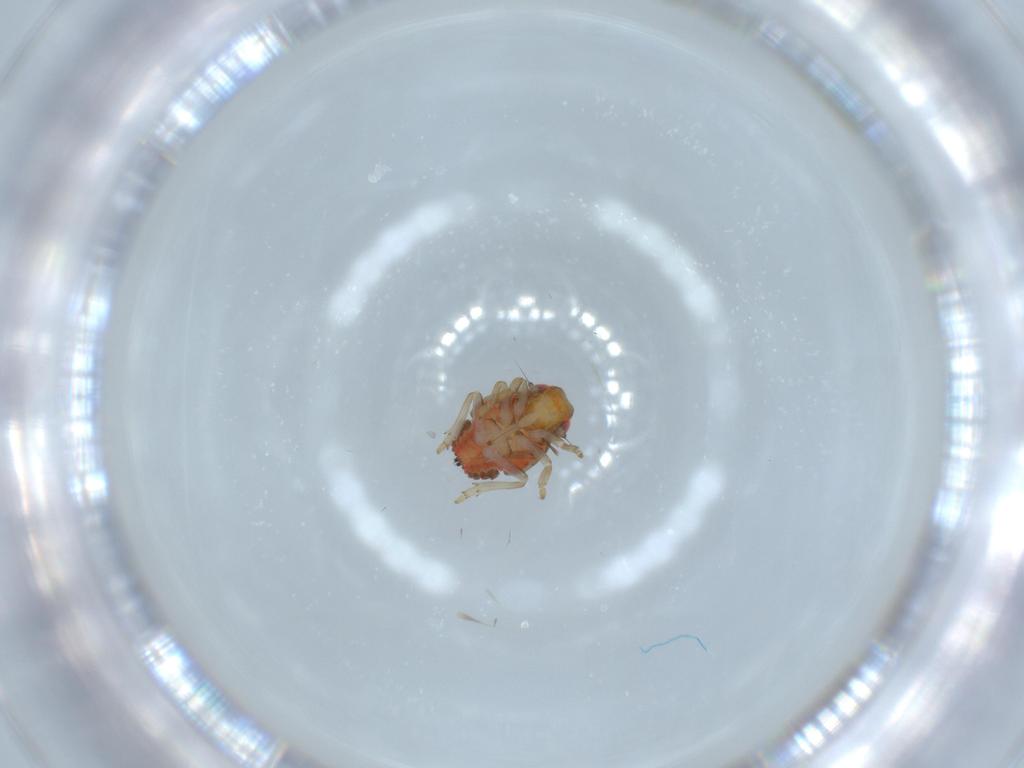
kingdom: Animalia
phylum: Arthropoda
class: Insecta
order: Hemiptera
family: Issidae
